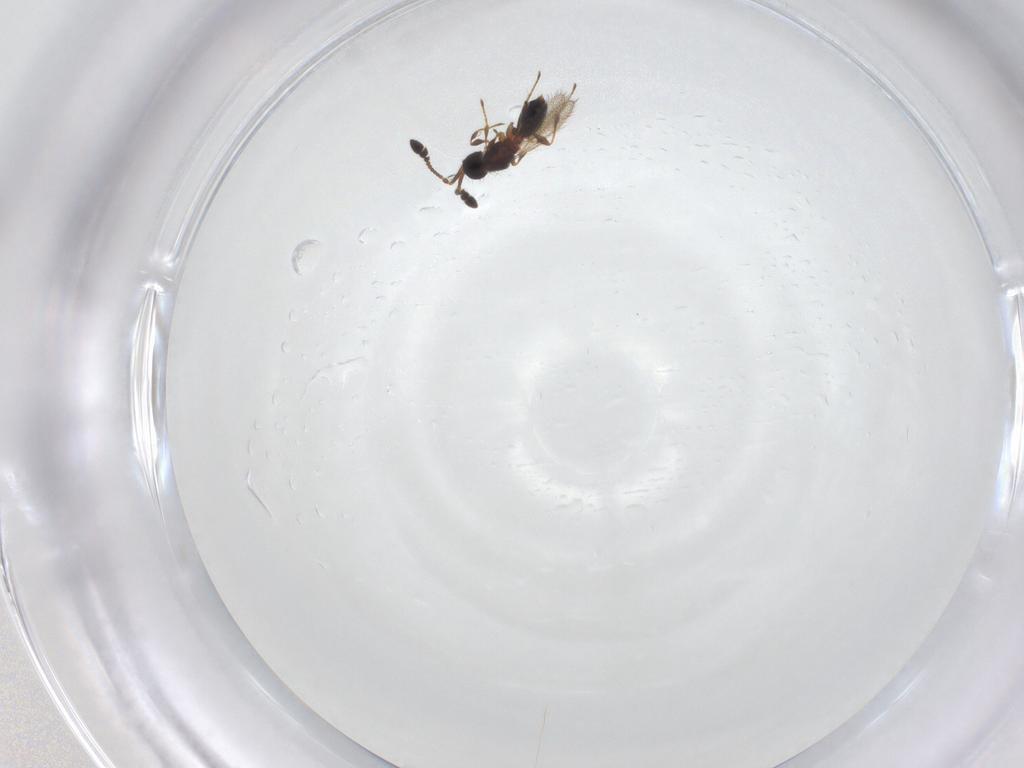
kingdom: Animalia
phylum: Arthropoda
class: Insecta
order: Hymenoptera
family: Diapriidae
